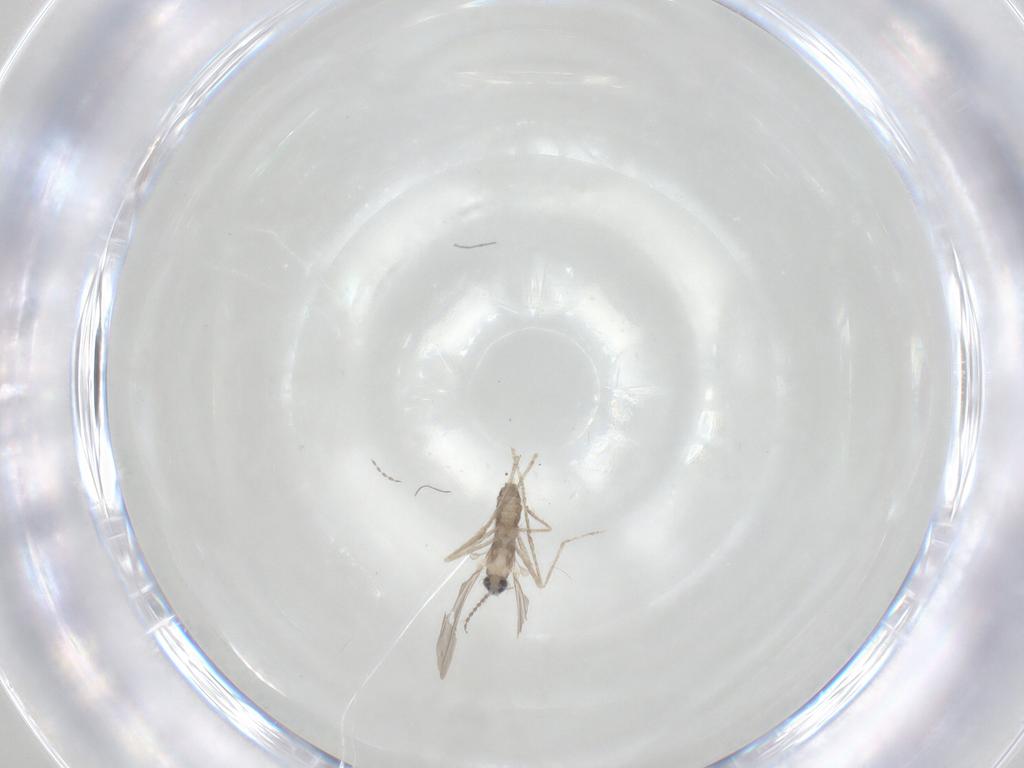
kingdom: Animalia
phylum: Arthropoda
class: Insecta
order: Diptera
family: Cecidomyiidae
